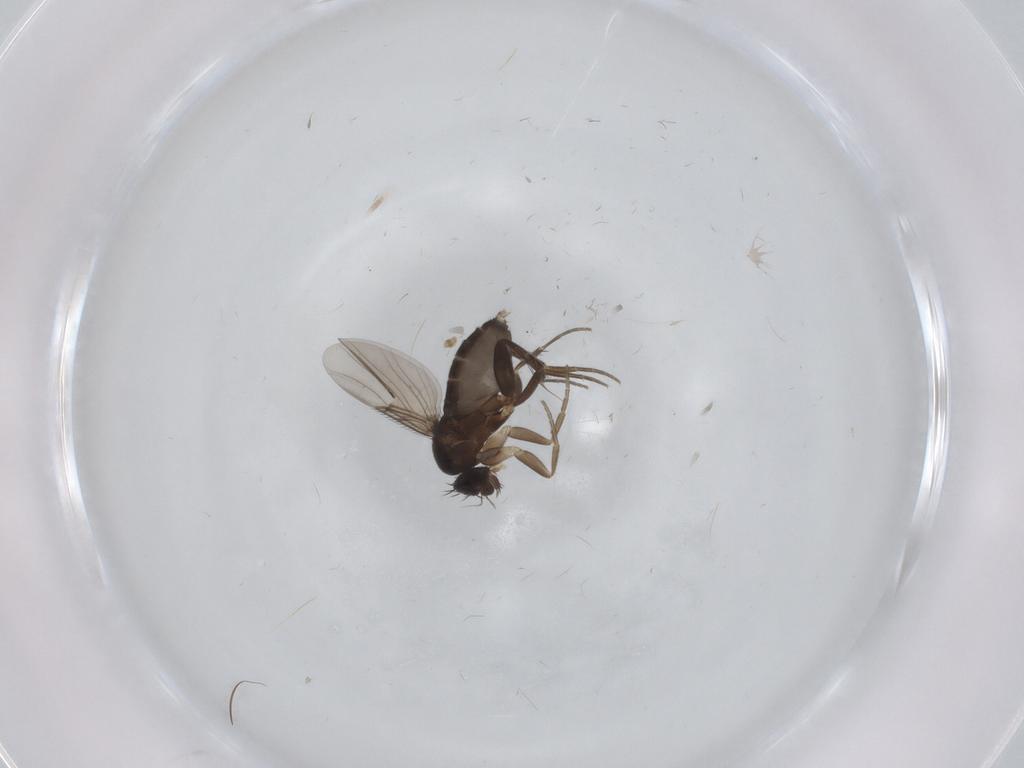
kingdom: Animalia
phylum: Arthropoda
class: Insecta
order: Diptera
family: Phoridae
